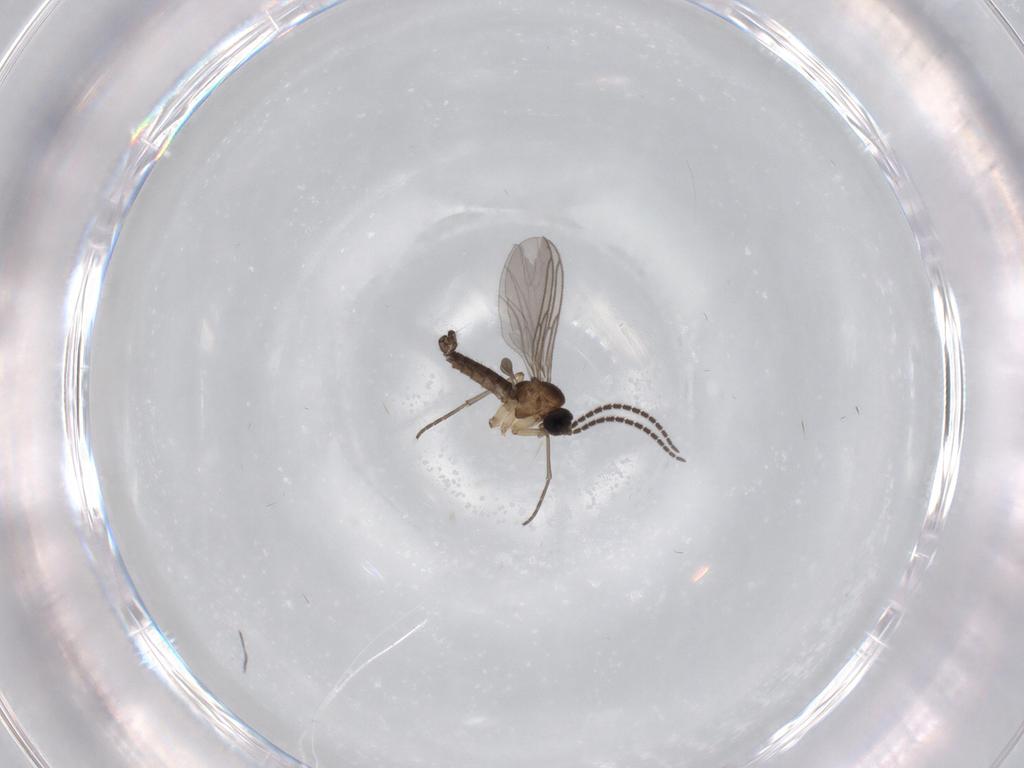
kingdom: Animalia
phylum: Arthropoda
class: Insecta
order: Diptera
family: Sciaridae
